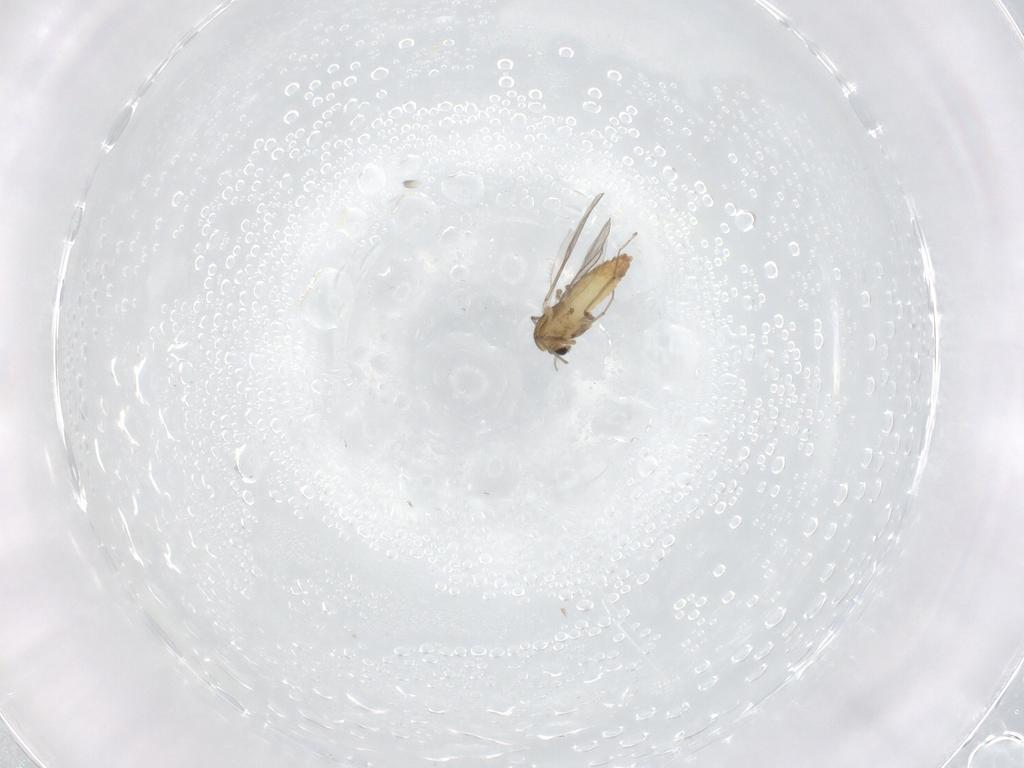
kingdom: Animalia
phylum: Arthropoda
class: Insecta
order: Diptera
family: Chironomidae
